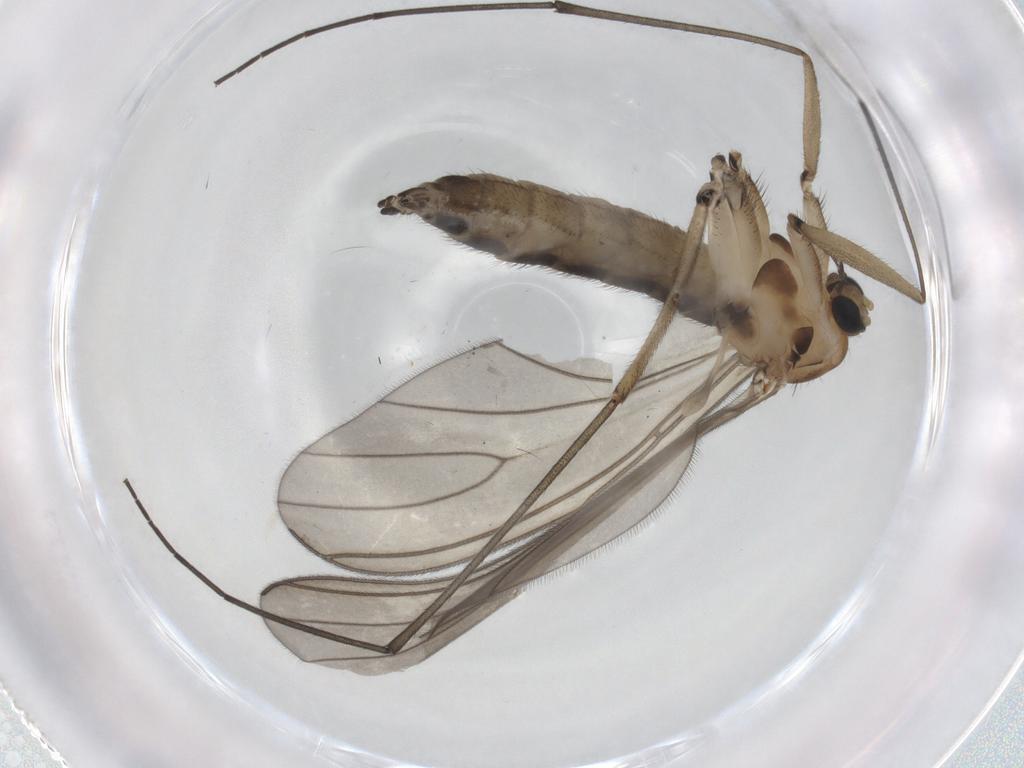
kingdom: Animalia
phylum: Arthropoda
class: Insecta
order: Diptera
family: Sciaridae
